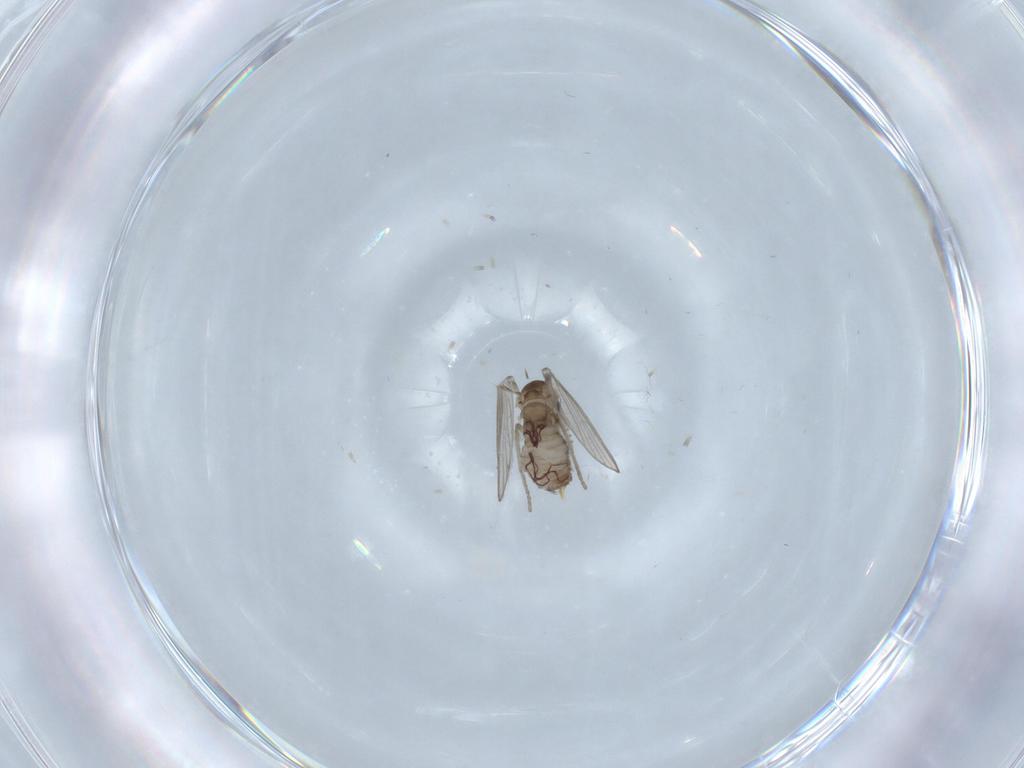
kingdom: Animalia
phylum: Arthropoda
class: Insecta
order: Diptera
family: Psychodidae
